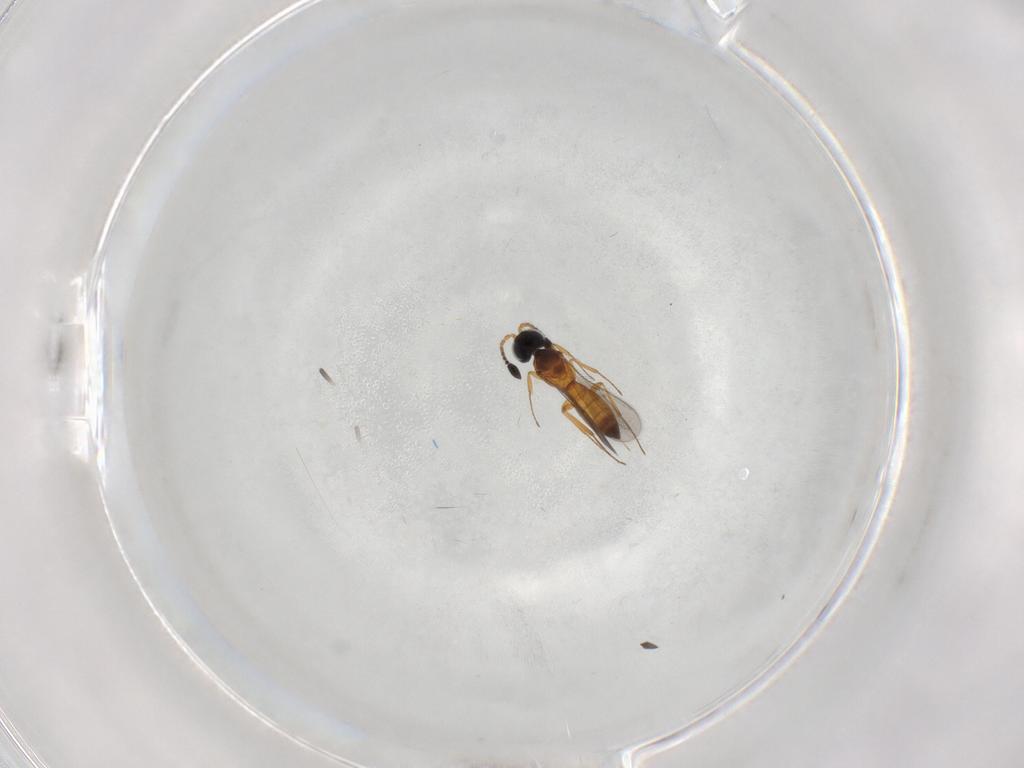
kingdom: Animalia
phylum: Arthropoda
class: Insecta
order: Hymenoptera
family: Scelionidae
